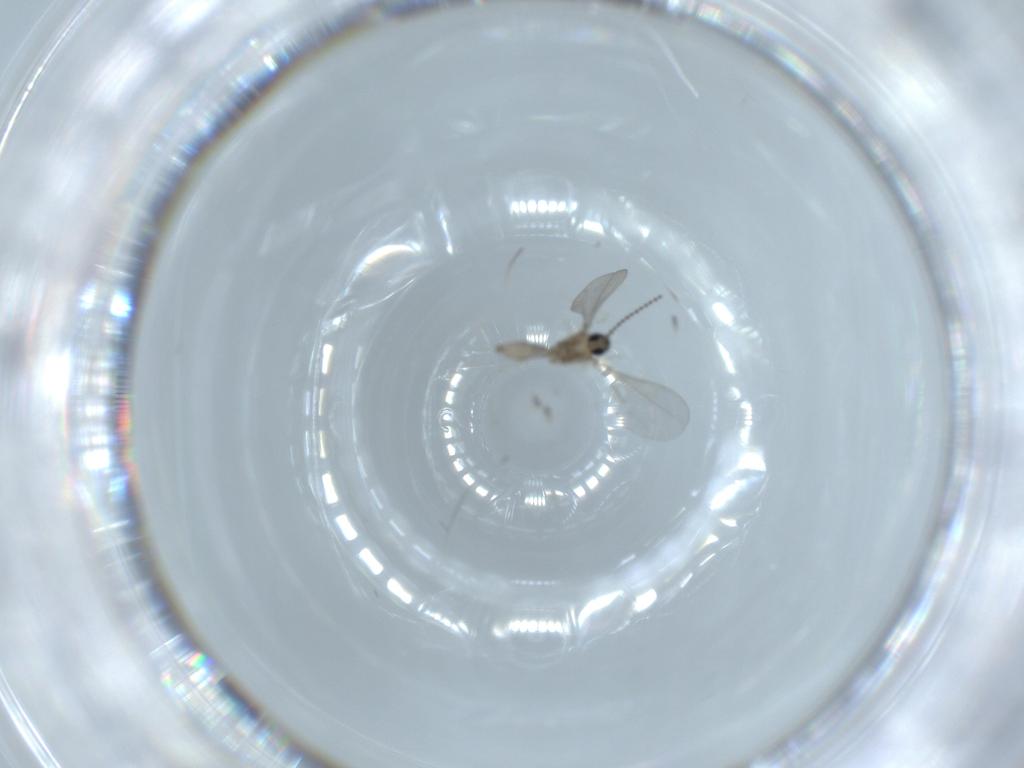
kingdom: Animalia
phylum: Arthropoda
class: Insecta
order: Diptera
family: Cecidomyiidae
